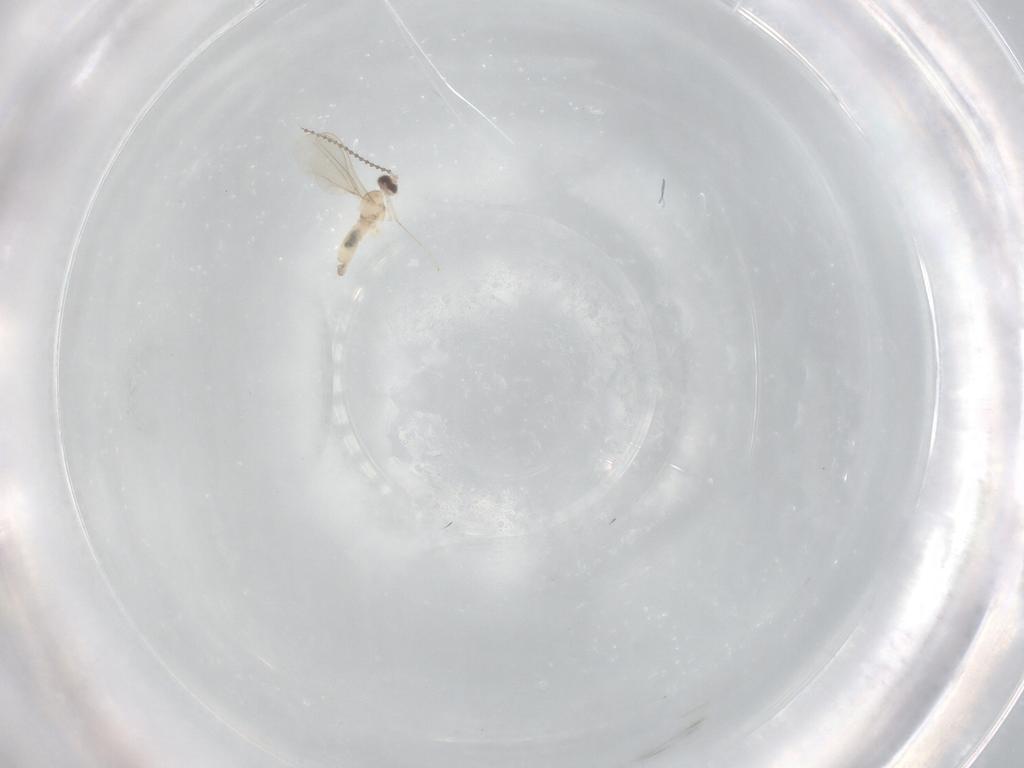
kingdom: Animalia
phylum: Arthropoda
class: Insecta
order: Diptera
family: Cecidomyiidae
